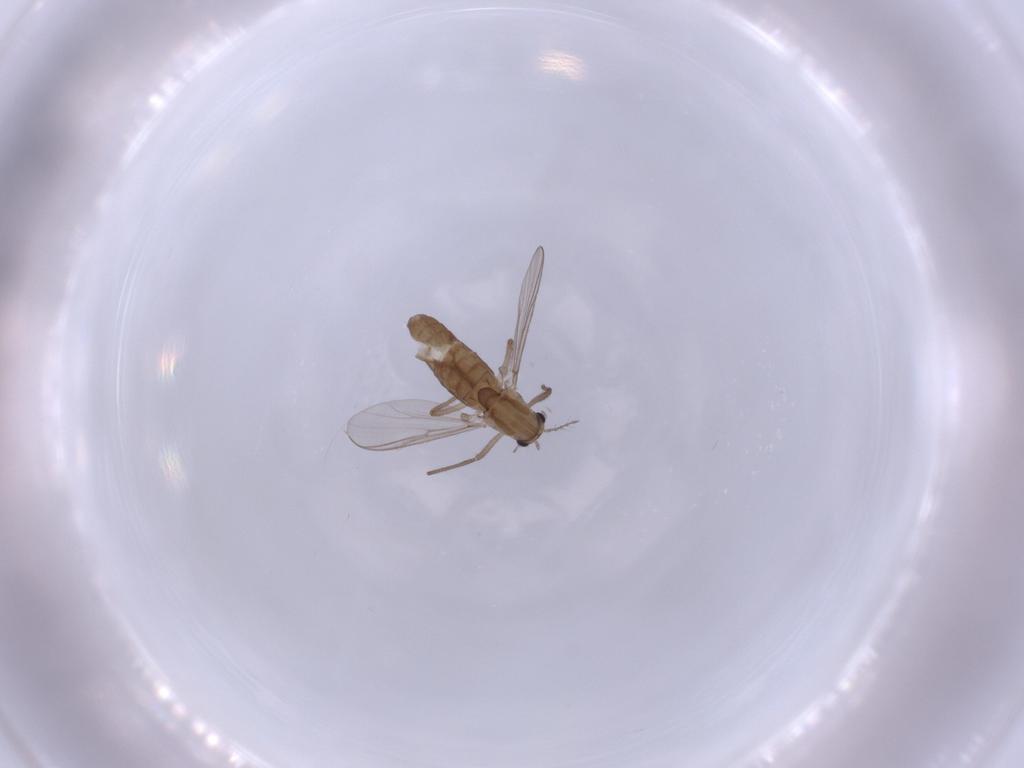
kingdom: Animalia
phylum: Arthropoda
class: Insecta
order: Diptera
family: Chironomidae
